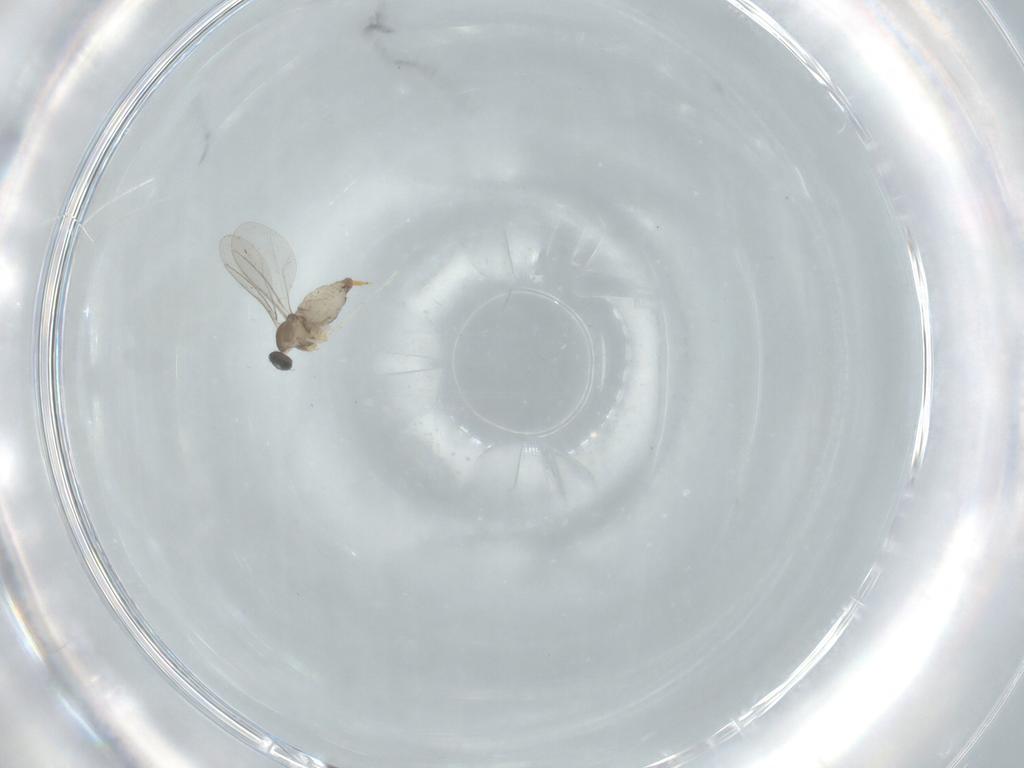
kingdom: Animalia
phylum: Arthropoda
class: Insecta
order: Diptera
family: Cecidomyiidae
